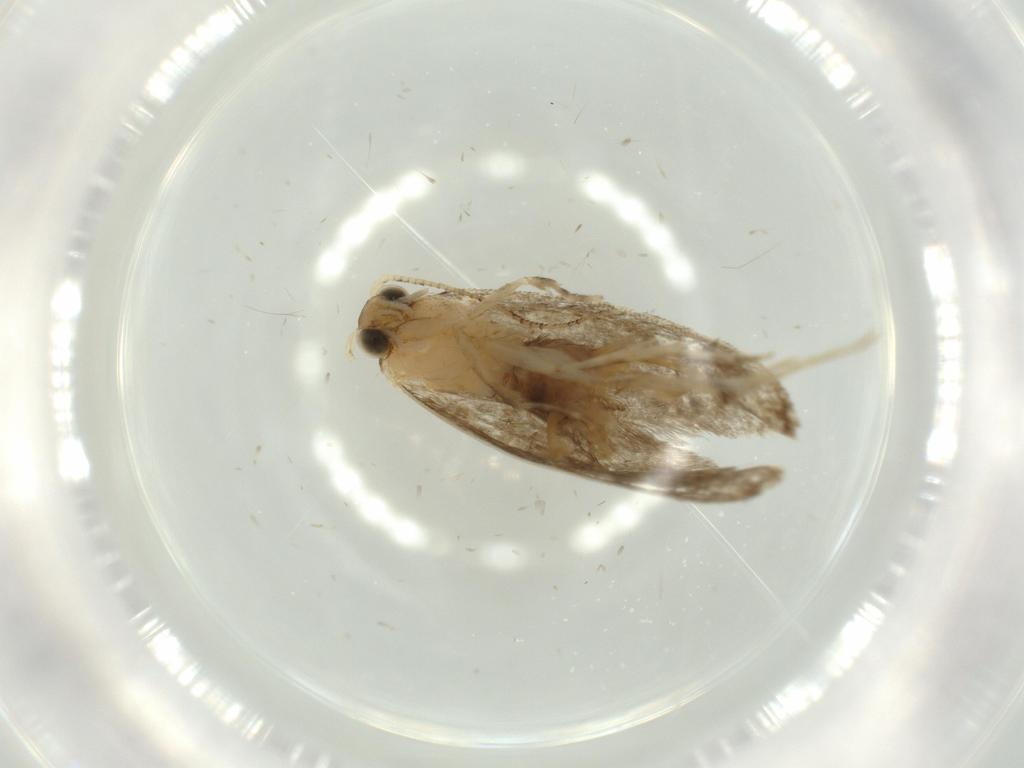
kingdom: Animalia
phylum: Arthropoda
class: Insecta
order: Lepidoptera
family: Tineidae
